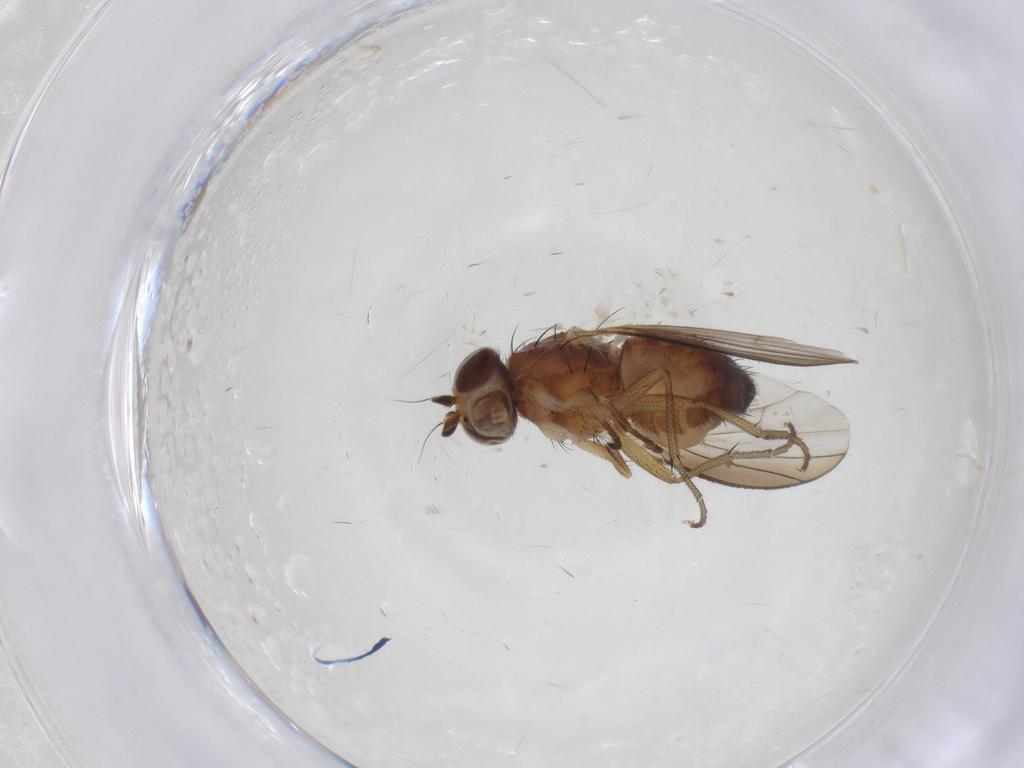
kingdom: Animalia
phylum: Arthropoda
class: Insecta
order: Diptera
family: Heleomyzidae
